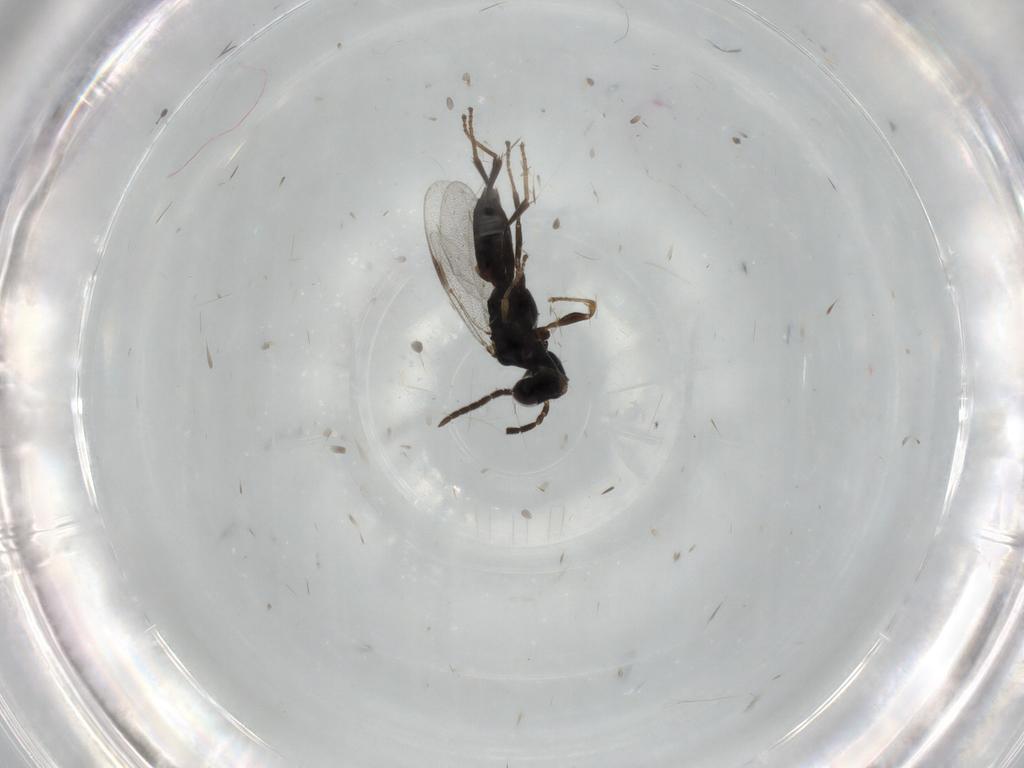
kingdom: Animalia
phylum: Arthropoda
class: Insecta
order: Hymenoptera
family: Dryinidae
